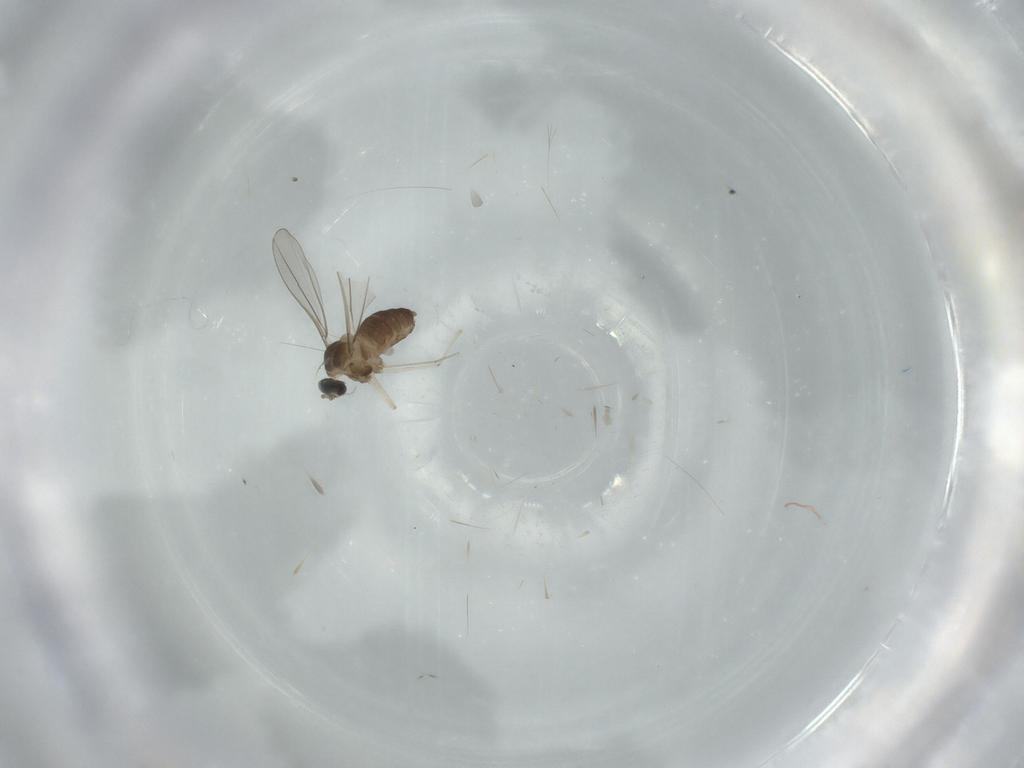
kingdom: Animalia
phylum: Arthropoda
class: Insecta
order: Diptera
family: Cecidomyiidae
